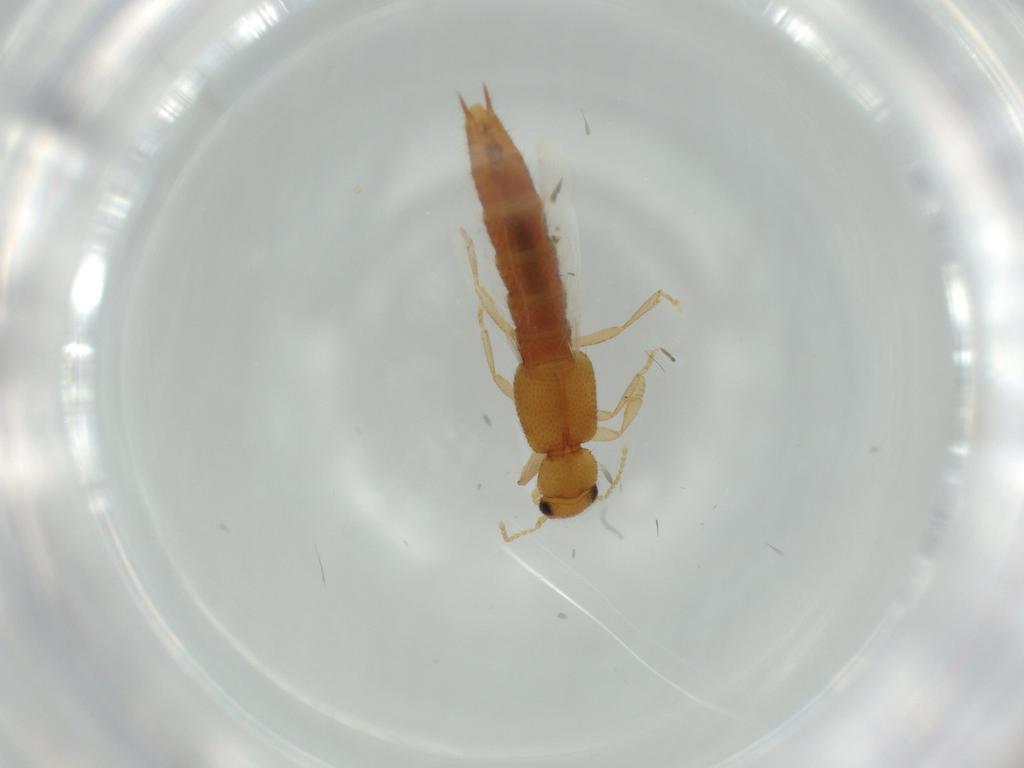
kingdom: Animalia
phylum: Arthropoda
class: Insecta
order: Coleoptera
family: Staphylinidae
